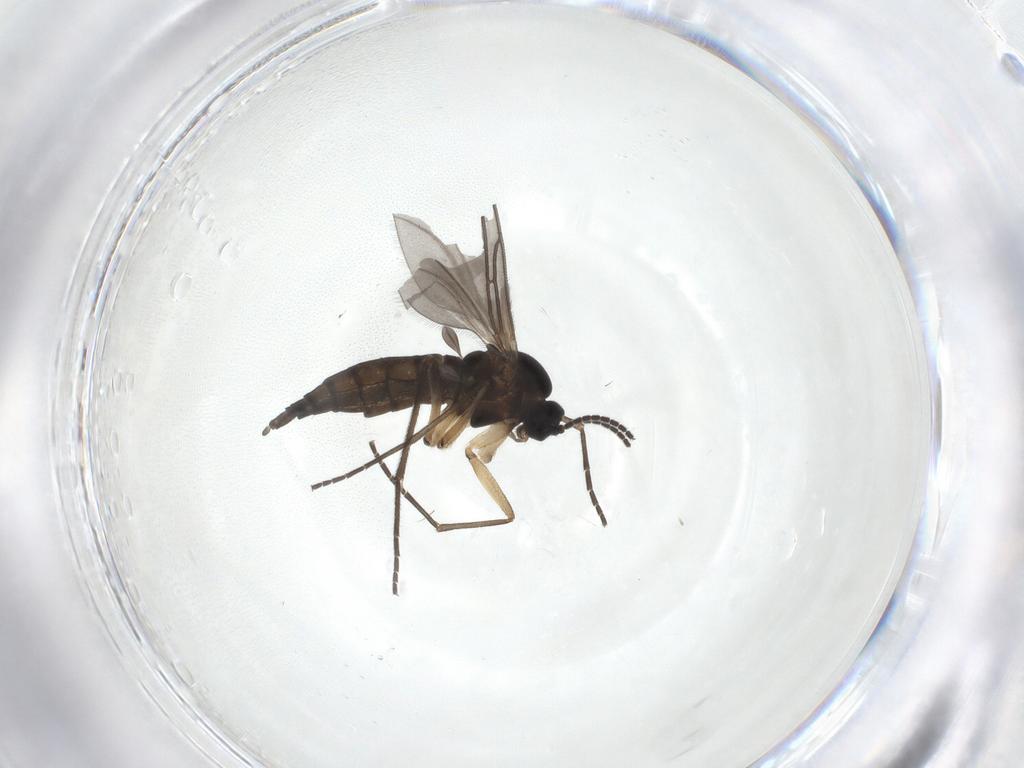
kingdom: Animalia
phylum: Arthropoda
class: Insecta
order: Diptera
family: Sciaridae
